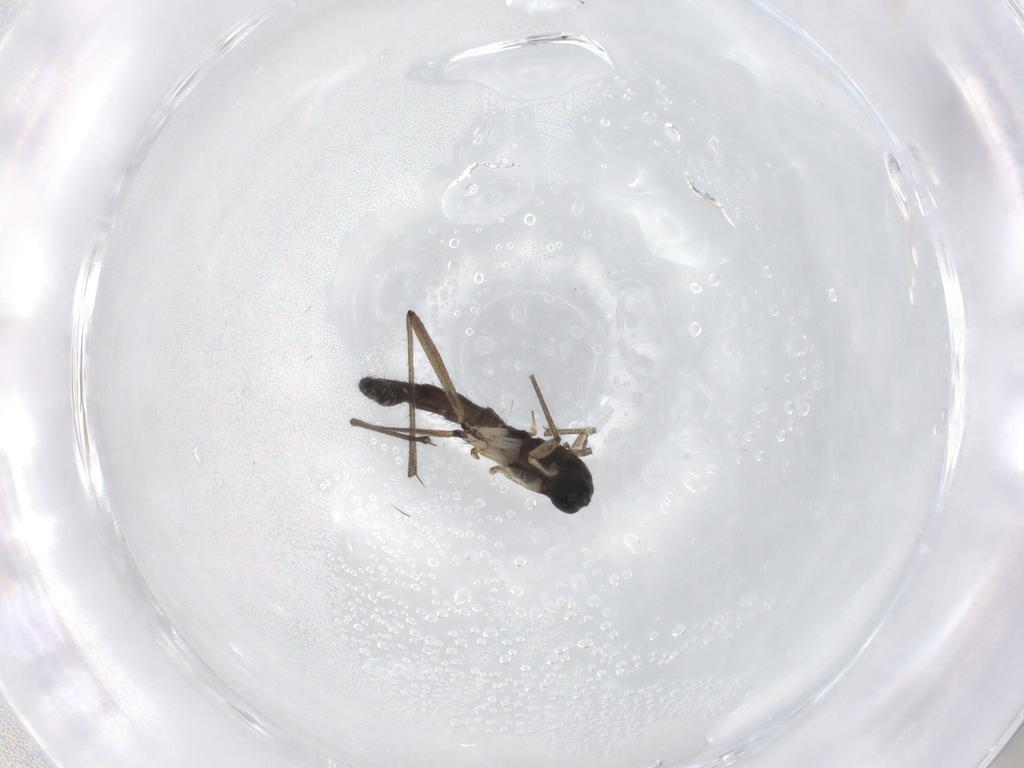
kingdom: Animalia
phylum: Arthropoda
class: Insecta
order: Diptera
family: Sciaridae
